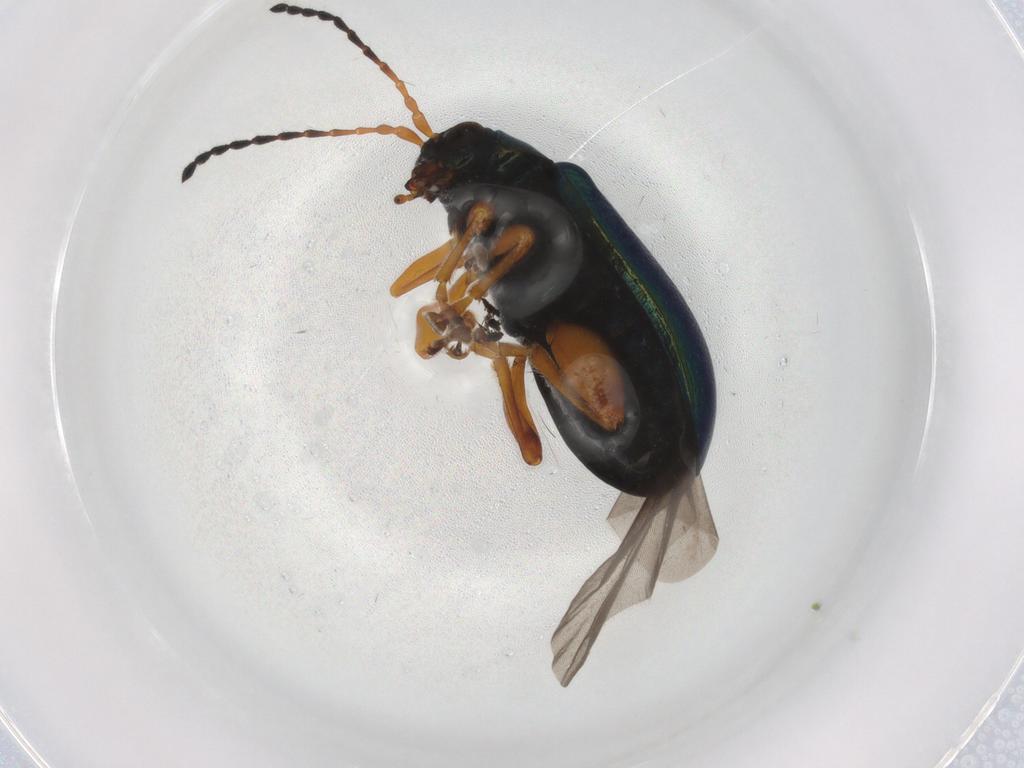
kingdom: Animalia
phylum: Arthropoda
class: Insecta
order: Coleoptera
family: Chrysomelidae
